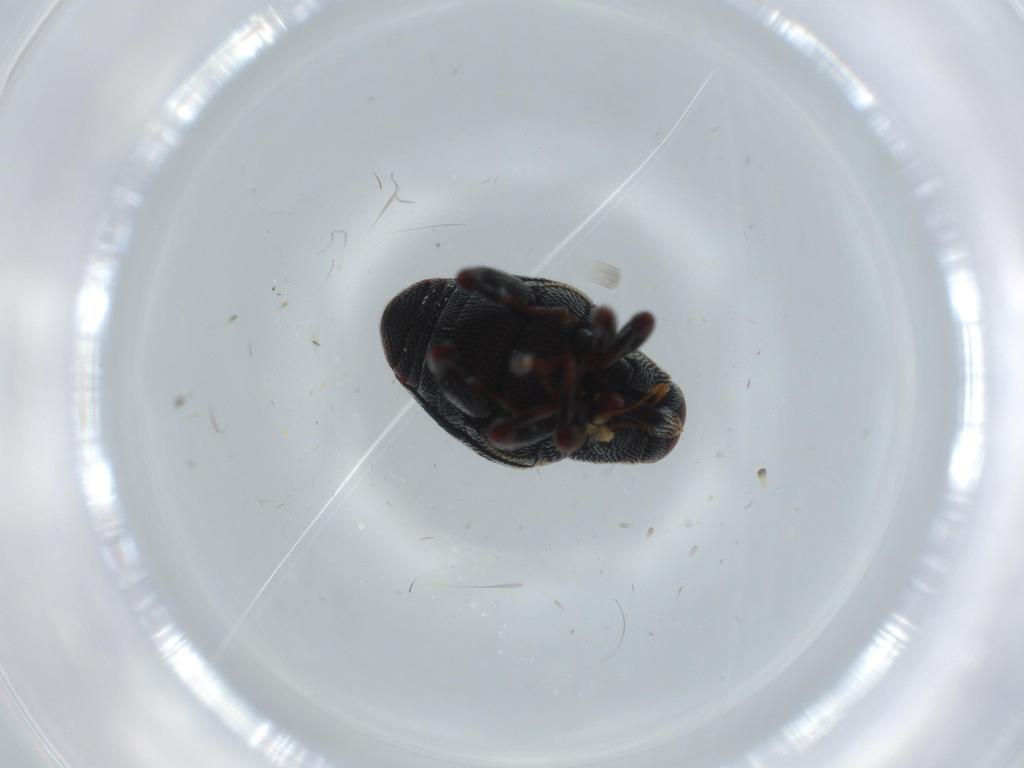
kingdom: Animalia
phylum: Arthropoda
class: Insecta
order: Coleoptera
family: Curculionidae
